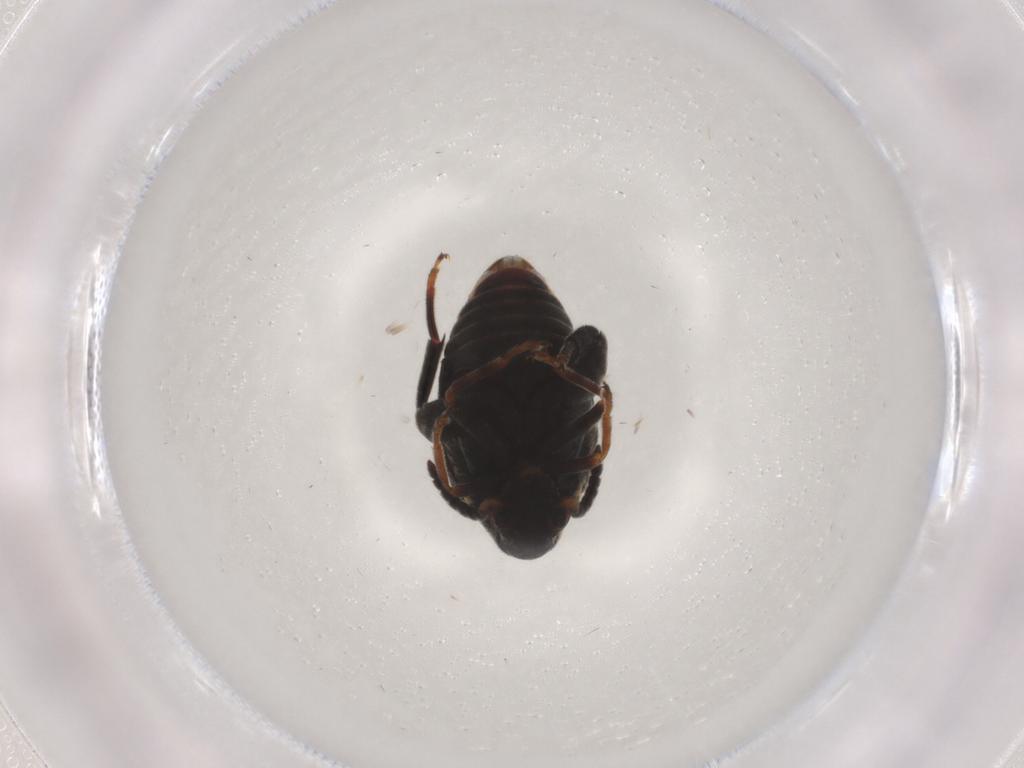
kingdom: Animalia
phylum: Arthropoda
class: Insecta
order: Coleoptera
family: Chrysomelidae
